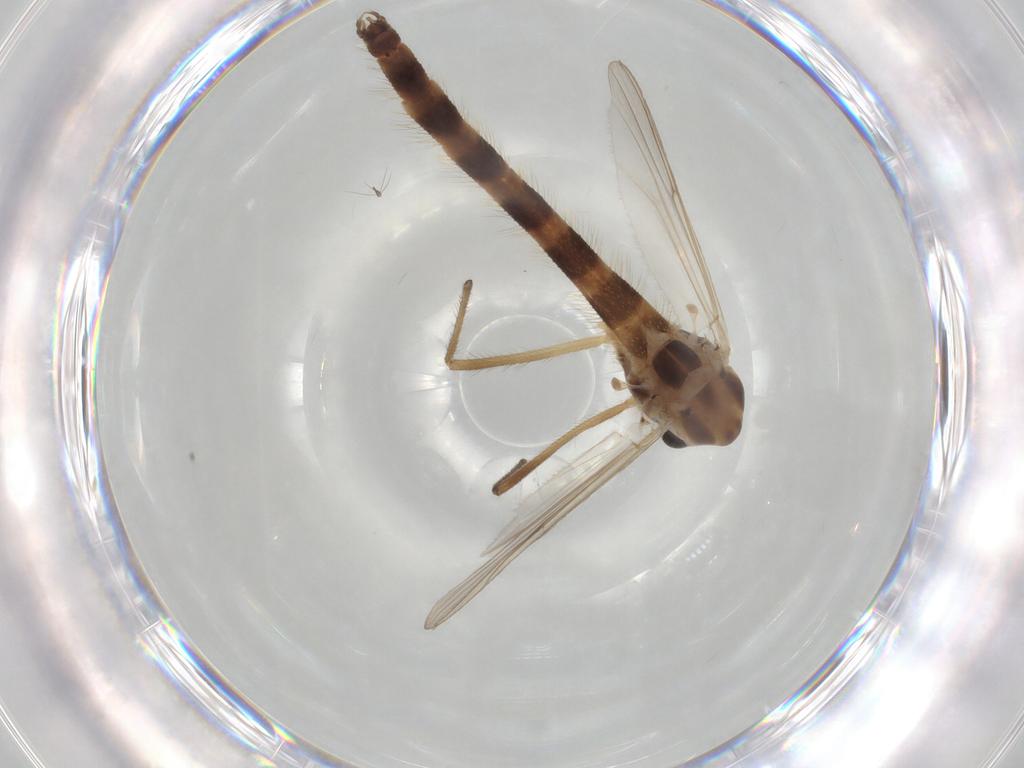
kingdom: Animalia
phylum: Arthropoda
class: Insecta
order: Diptera
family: Chironomidae
